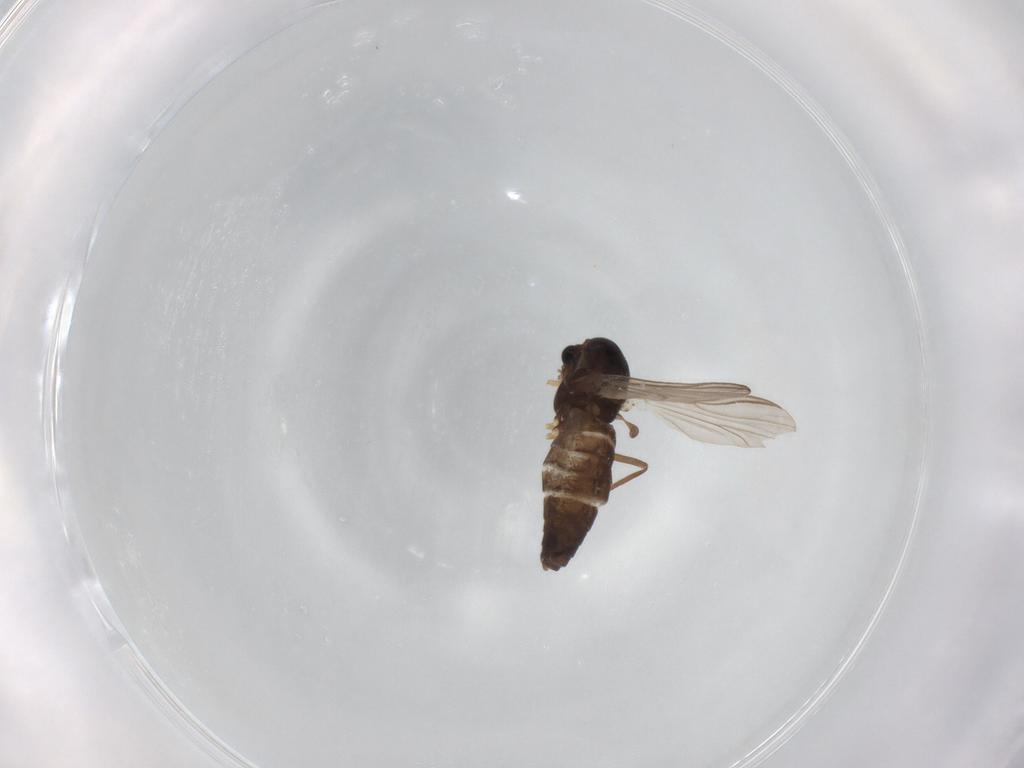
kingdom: Animalia
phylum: Arthropoda
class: Insecta
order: Diptera
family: Chironomidae
